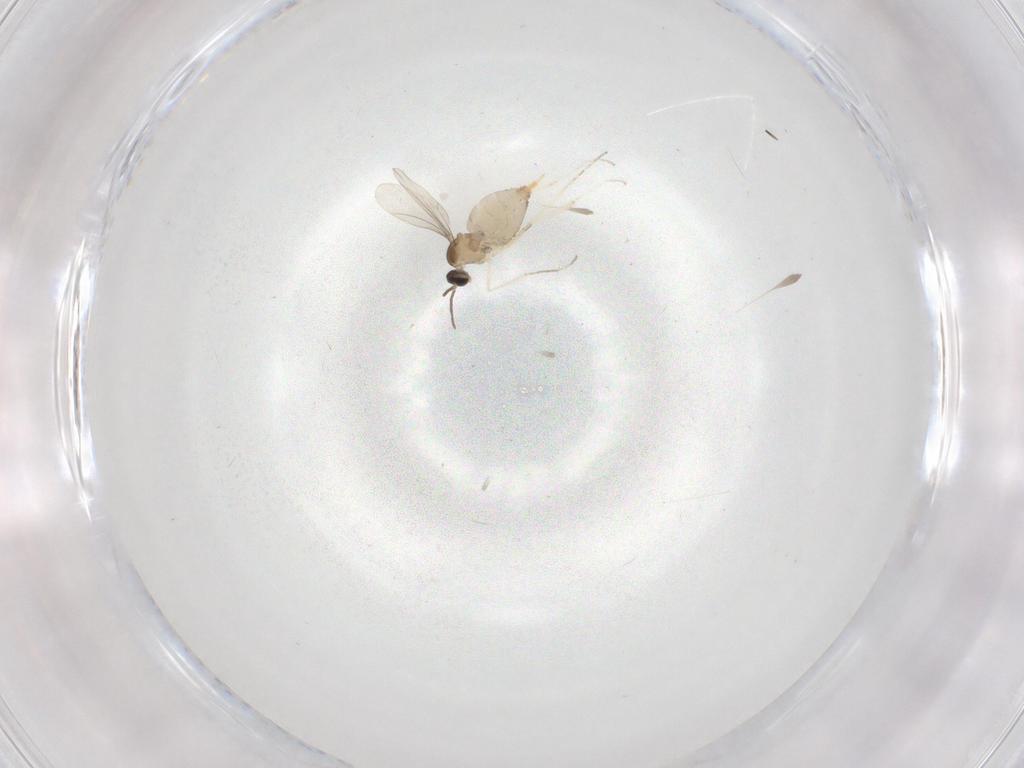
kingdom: Animalia
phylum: Arthropoda
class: Insecta
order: Diptera
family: Cecidomyiidae
